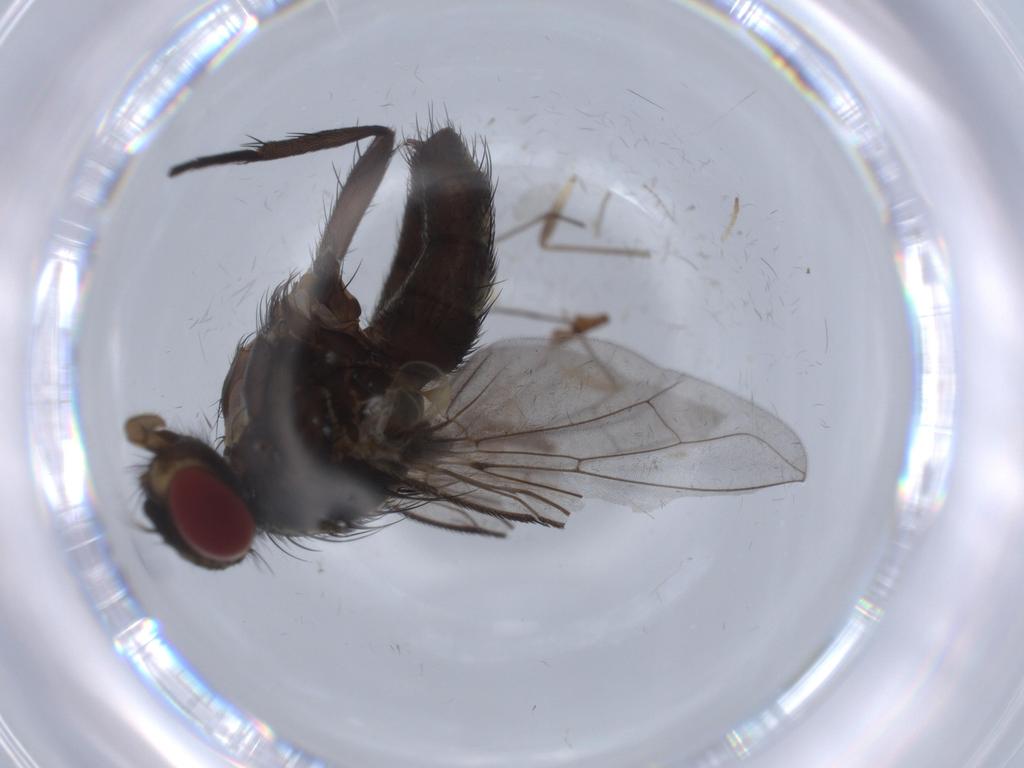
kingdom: Animalia
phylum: Arthropoda
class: Insecta
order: Diptera
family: Calliphoridae
